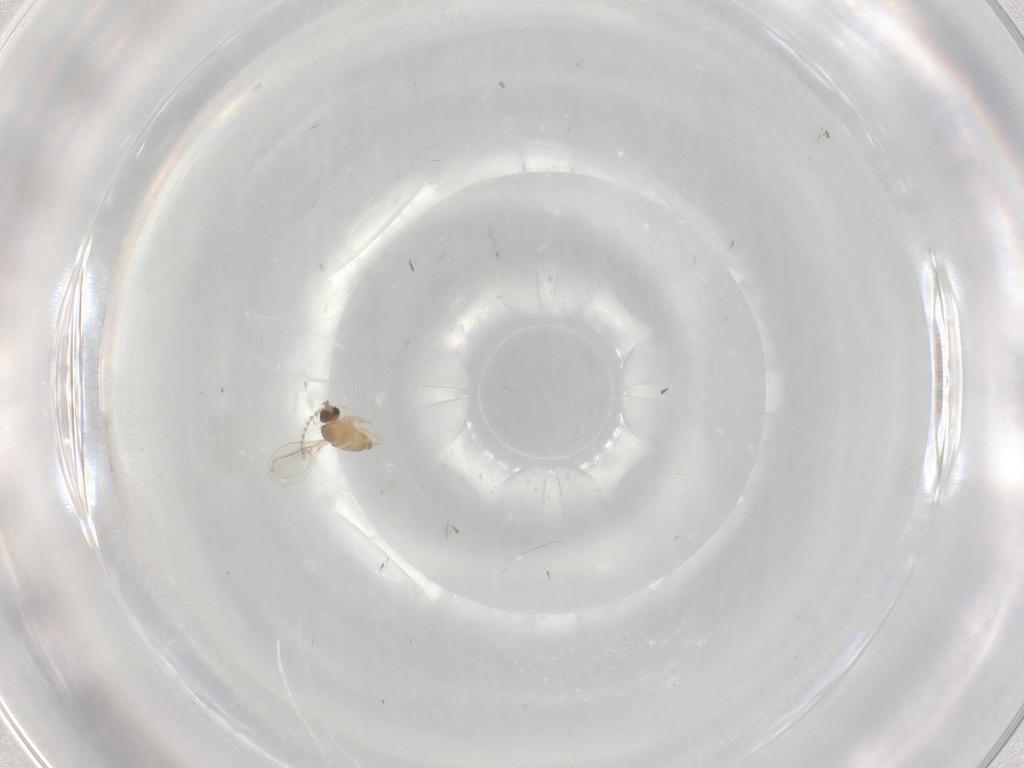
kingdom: Animalia
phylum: Arthropoda
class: Insecta
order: Diptera
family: Cecidomyiidae
